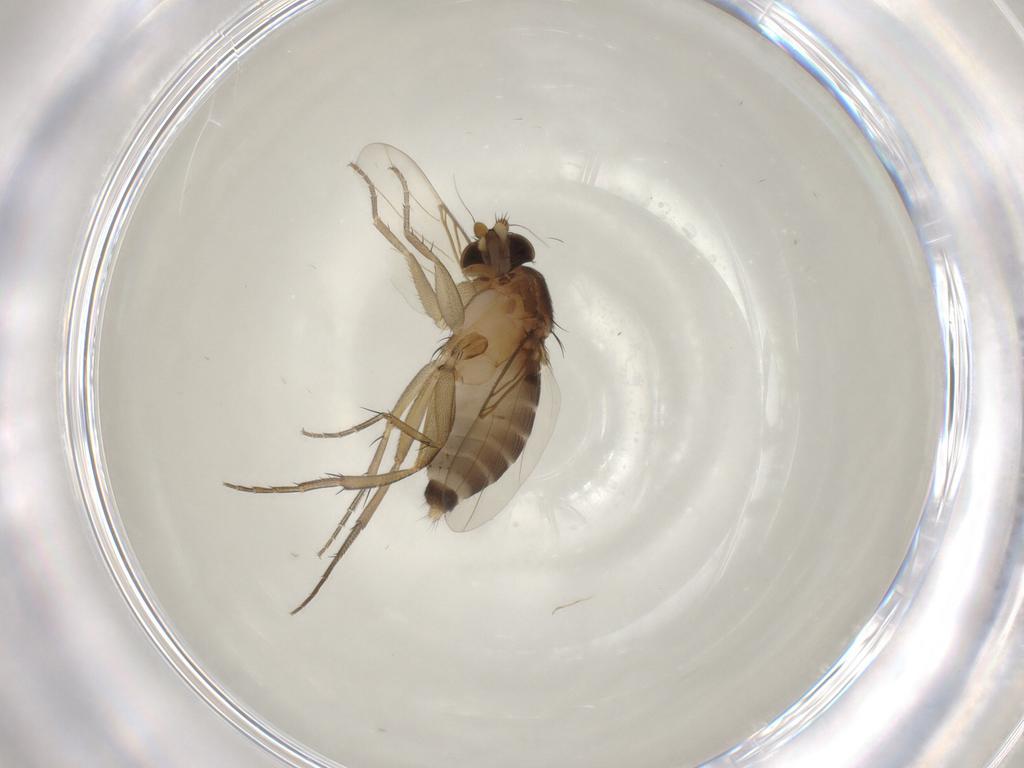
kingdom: Animalia
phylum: Arthropoda
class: Insecta
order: Diptera
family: Phoridae
